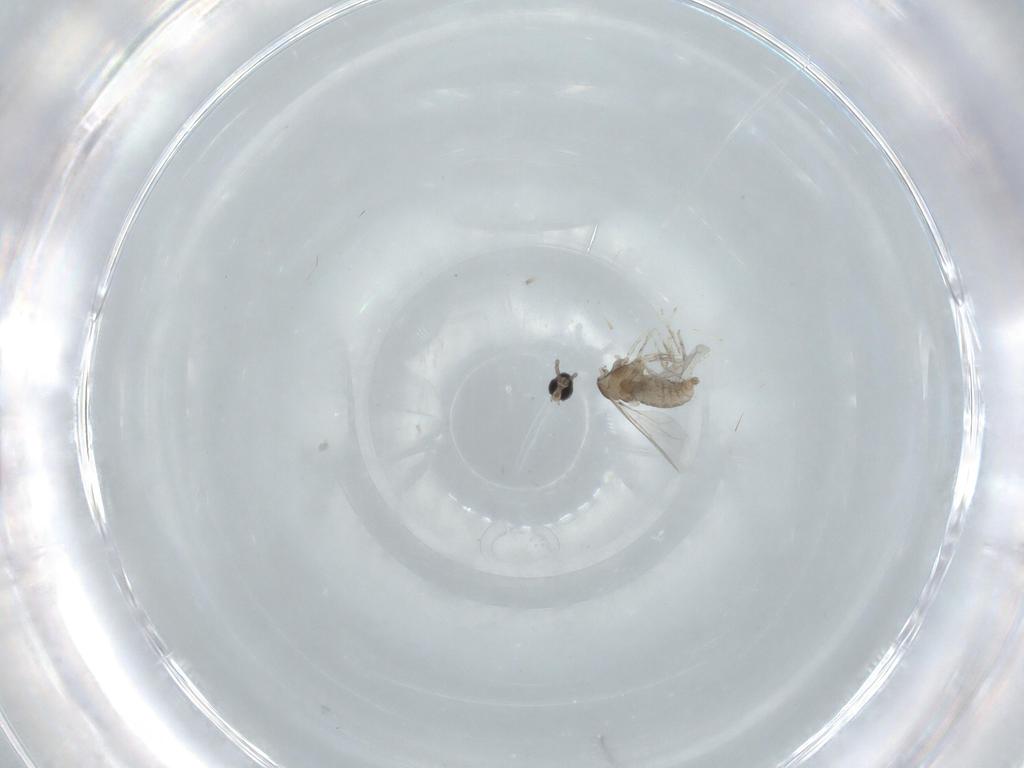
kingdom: Animalia
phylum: Arthropoda
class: Insecta
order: Diptera
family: Cecidomyiidae
